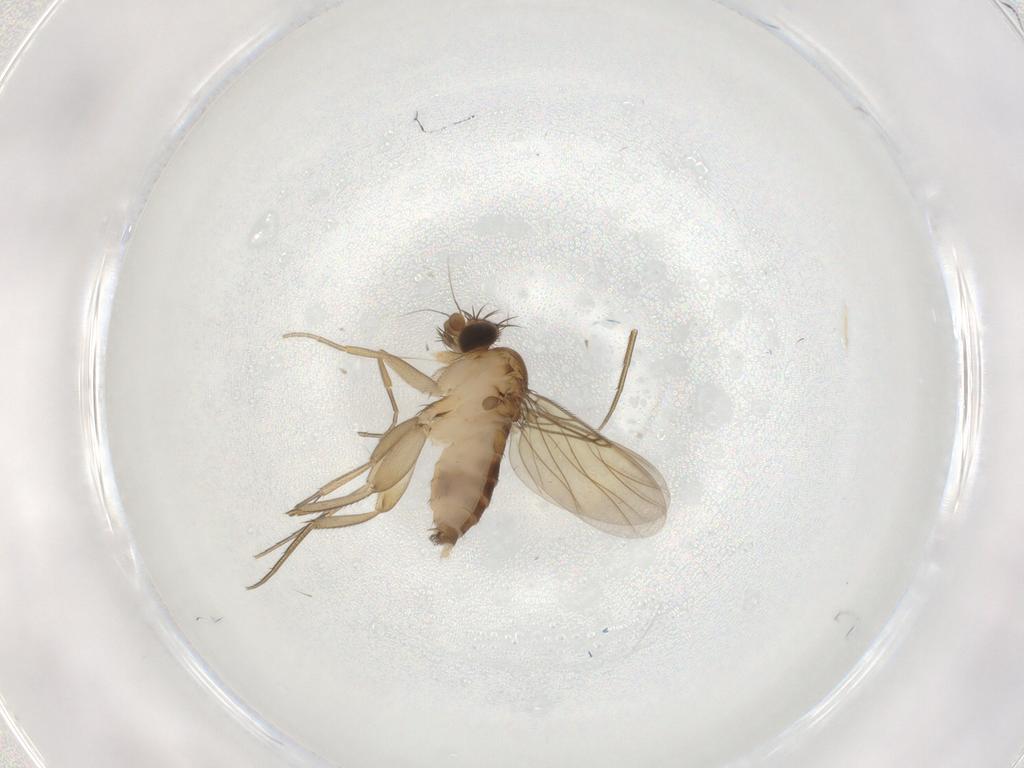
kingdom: Animalia
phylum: Arthropoda
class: Insecta
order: Diptera
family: Phoridae
